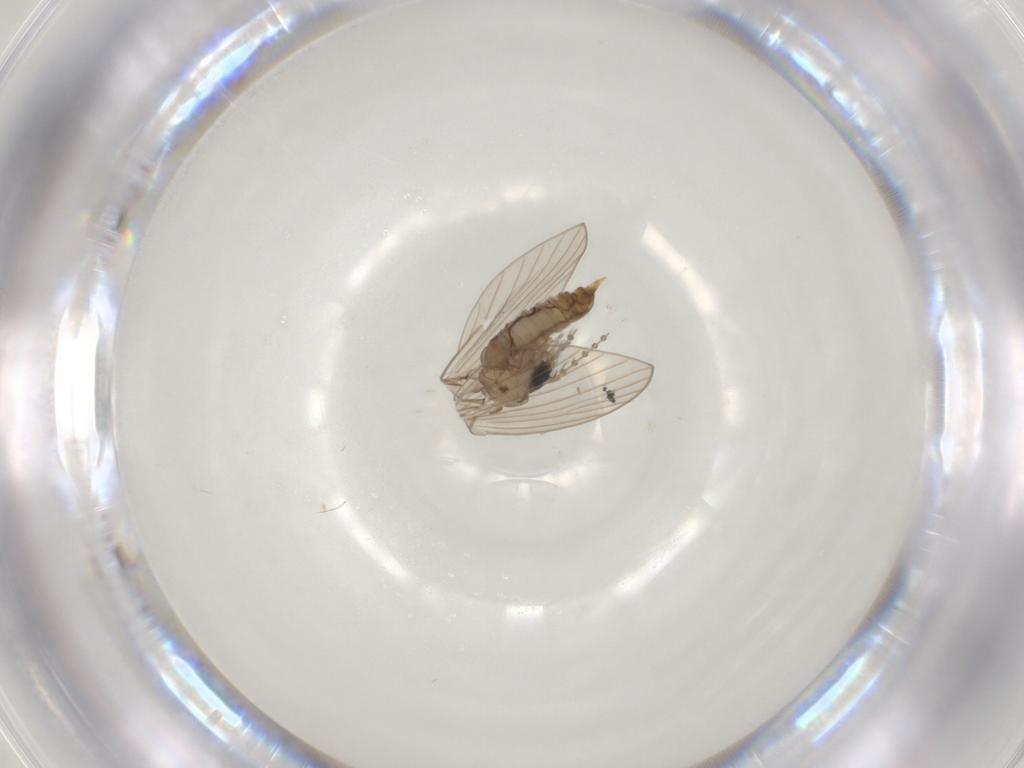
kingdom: Animalia
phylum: Arthropoda
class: Insecta
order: Diptera
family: Psychodidae
